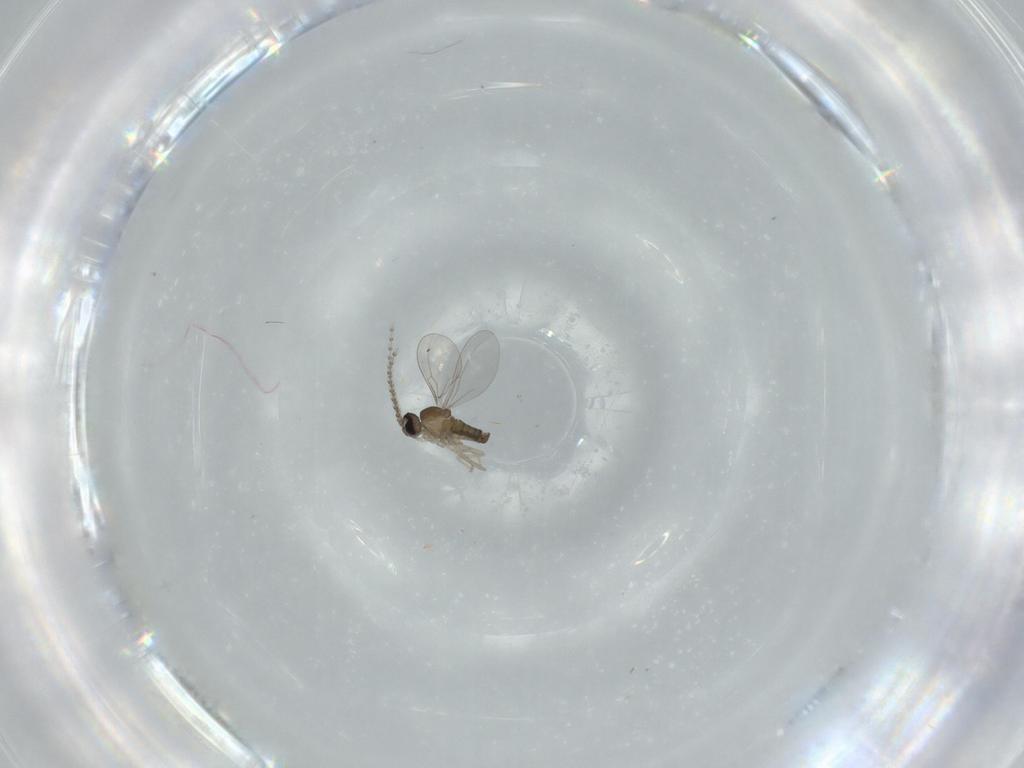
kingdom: Animalia
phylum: Arthropoda
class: Insecta
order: Diptera
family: Cecidomyiidae
